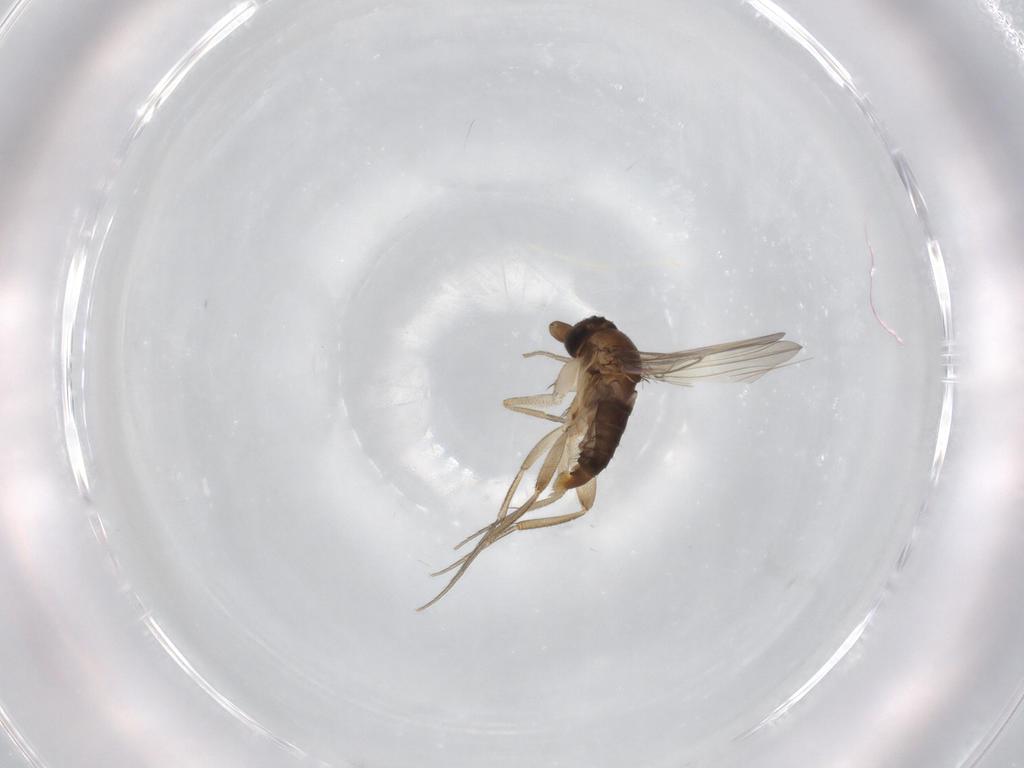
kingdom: Animalia
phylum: Arthropoda
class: Insecta
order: Diptera
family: Phoridae
